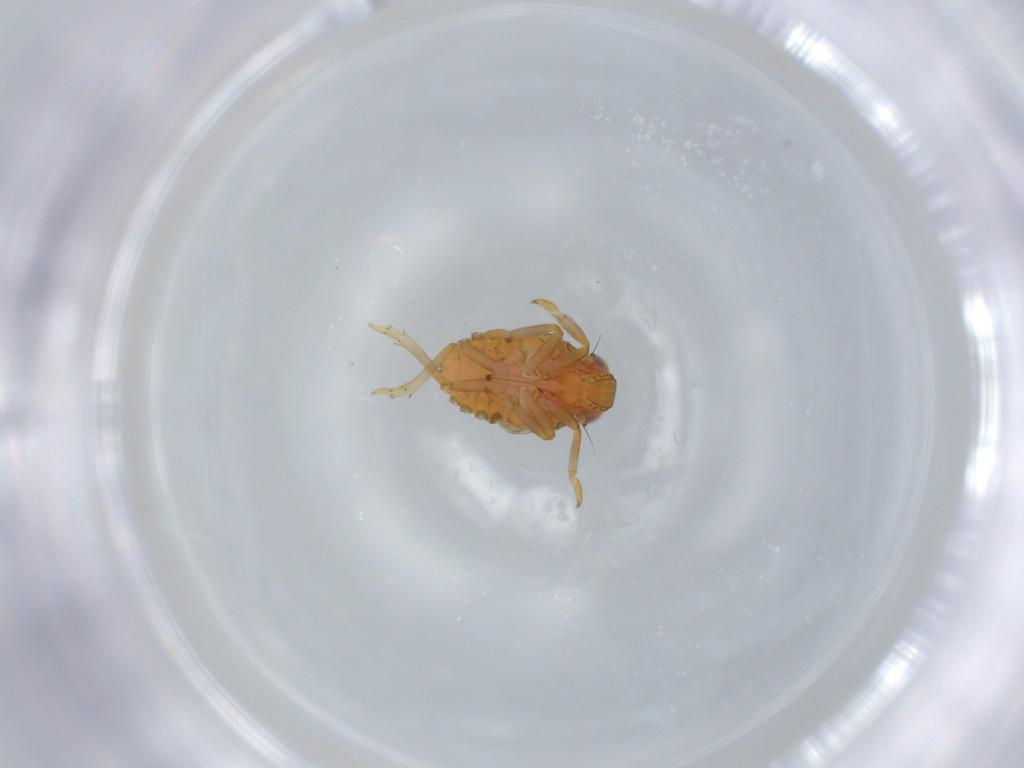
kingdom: Animalia
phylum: Arthropoda
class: Insecta
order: Hemiptera
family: Issidae
